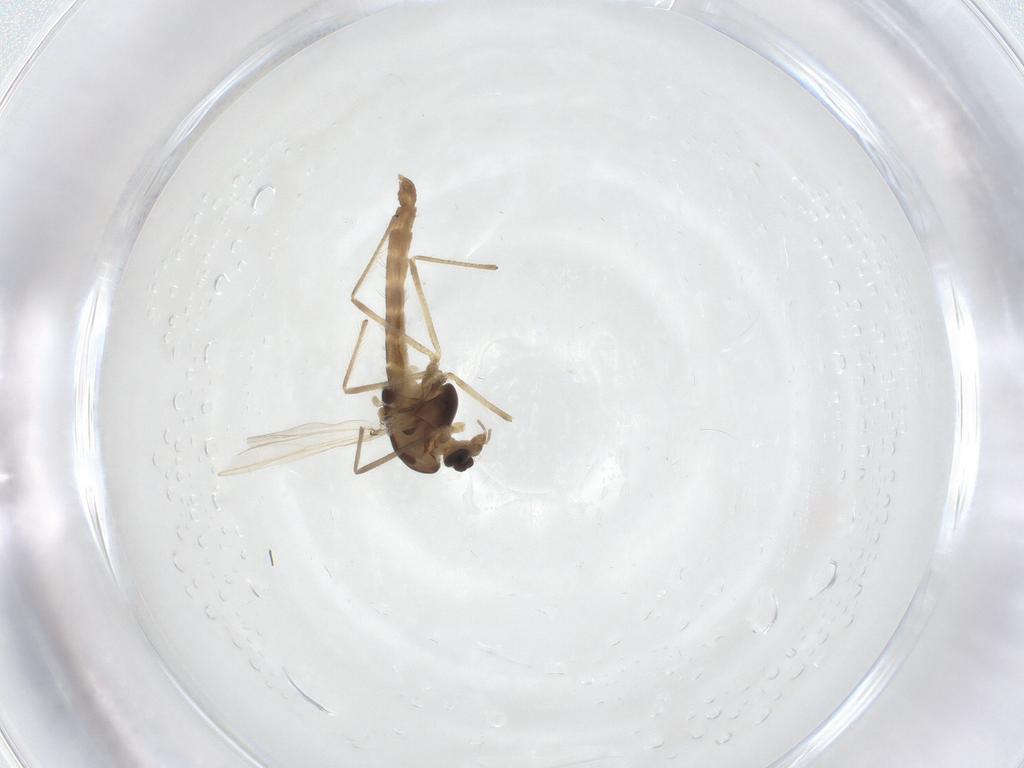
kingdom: Animalia
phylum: Arthropoda
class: Insecta
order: Diptera
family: Chironomidae
